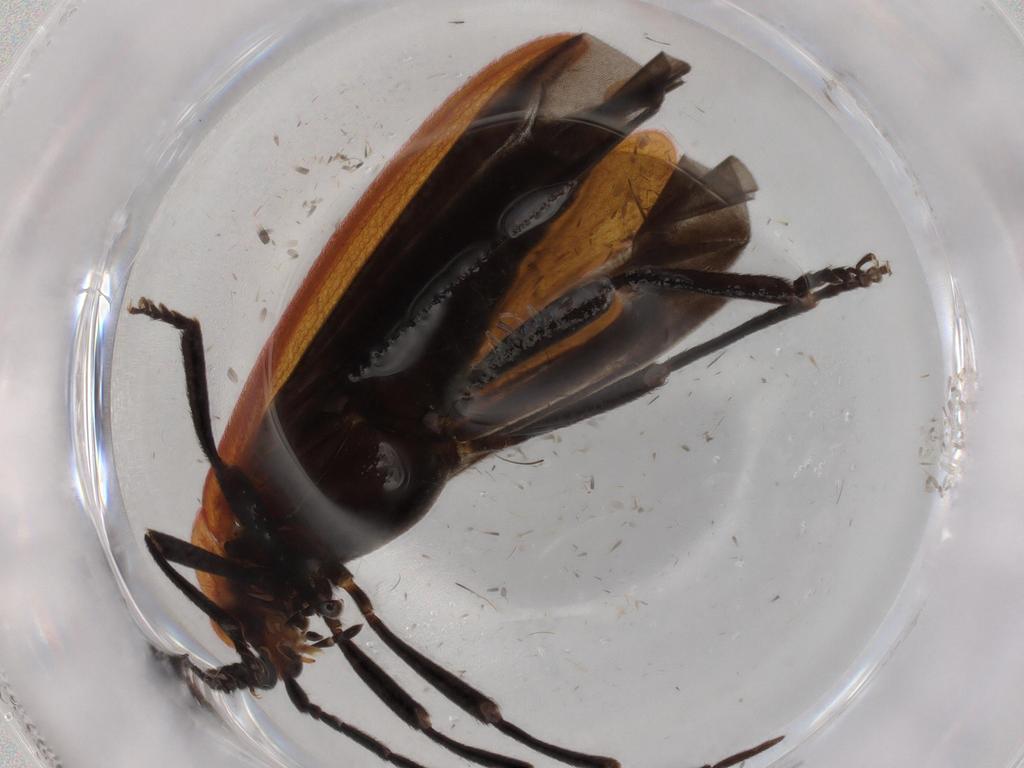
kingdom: Animalia
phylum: Arthropoda
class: Insecta
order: Coleoptera
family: Lycidae
